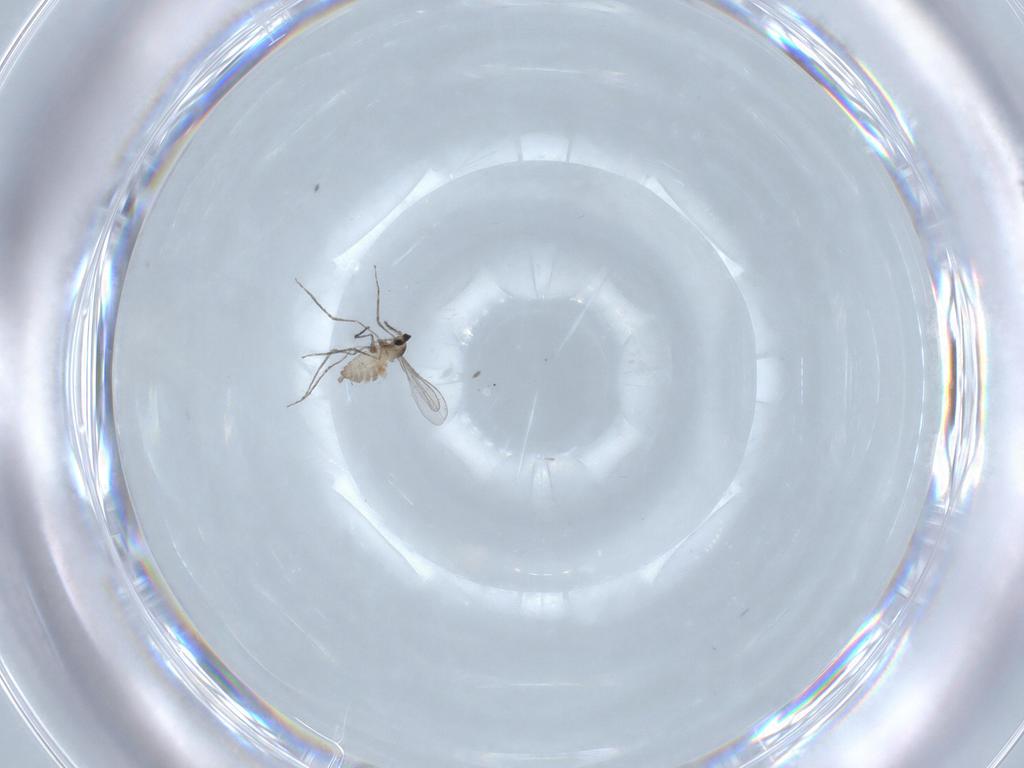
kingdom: Animalia
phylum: Arthropoda
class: Insecta
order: Diptera
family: Cecidomyiidae
